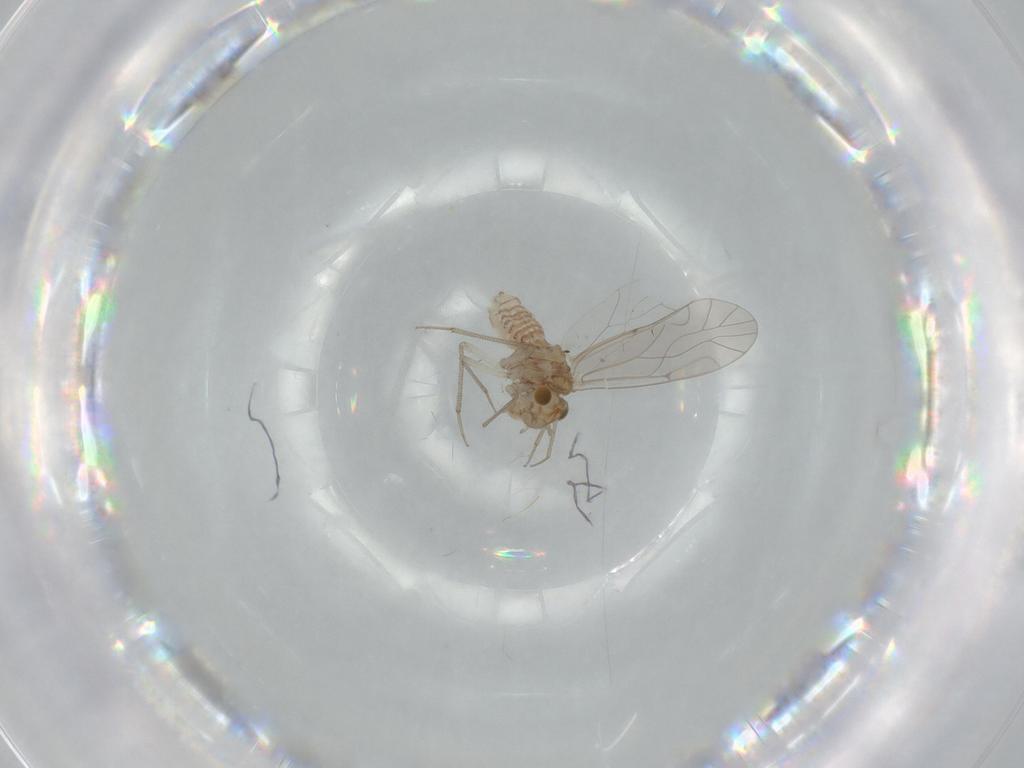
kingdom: Animalia
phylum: Arthropoda
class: Insecta
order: Psocodea
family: Lachesillidae
